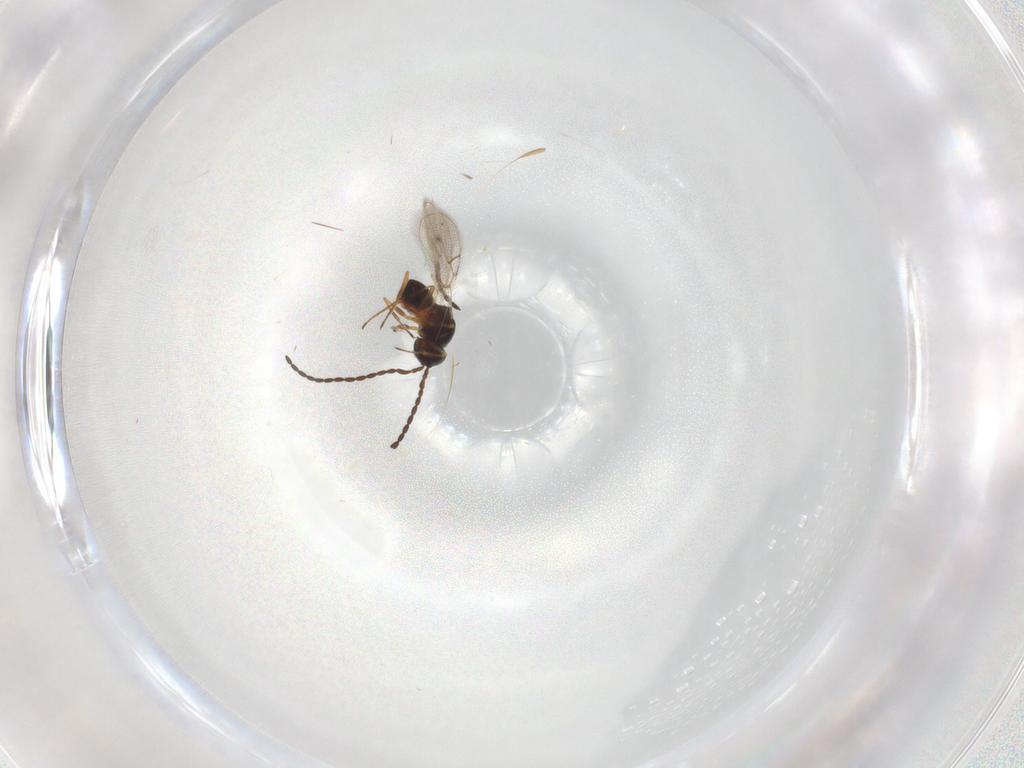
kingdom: Animalia
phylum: Arthropoda
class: Insecta
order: Hymenoptera
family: Figitidae
